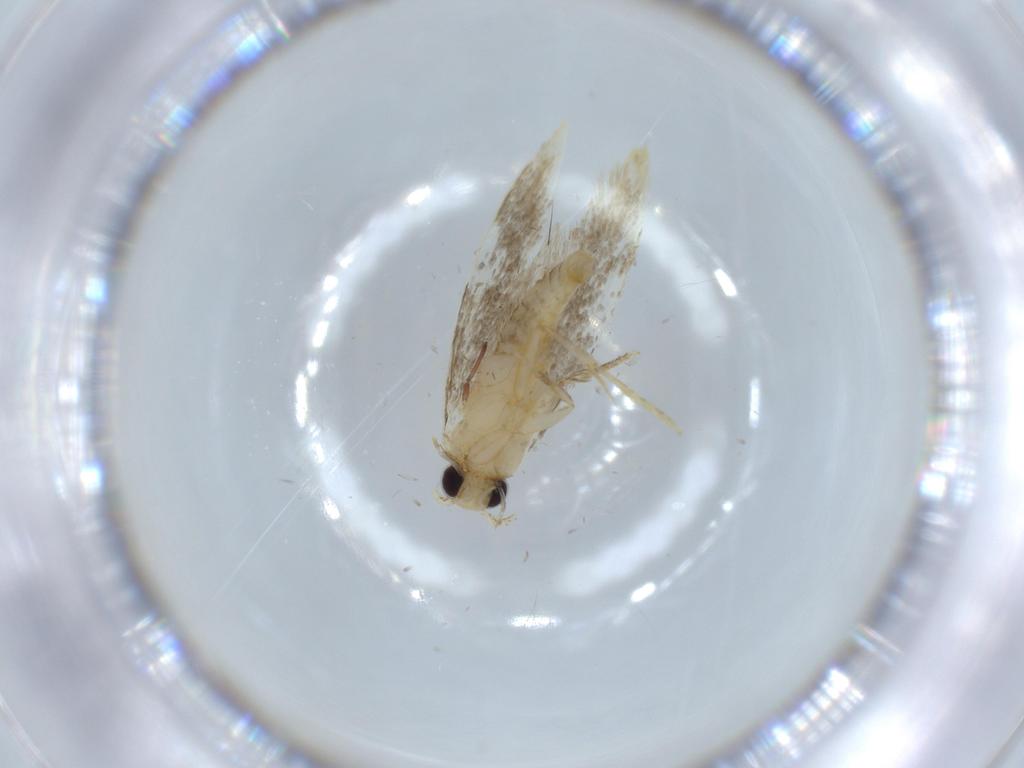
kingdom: Animalia
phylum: Arthropoda
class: Insecta
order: Lepidoptera
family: Tineidae
